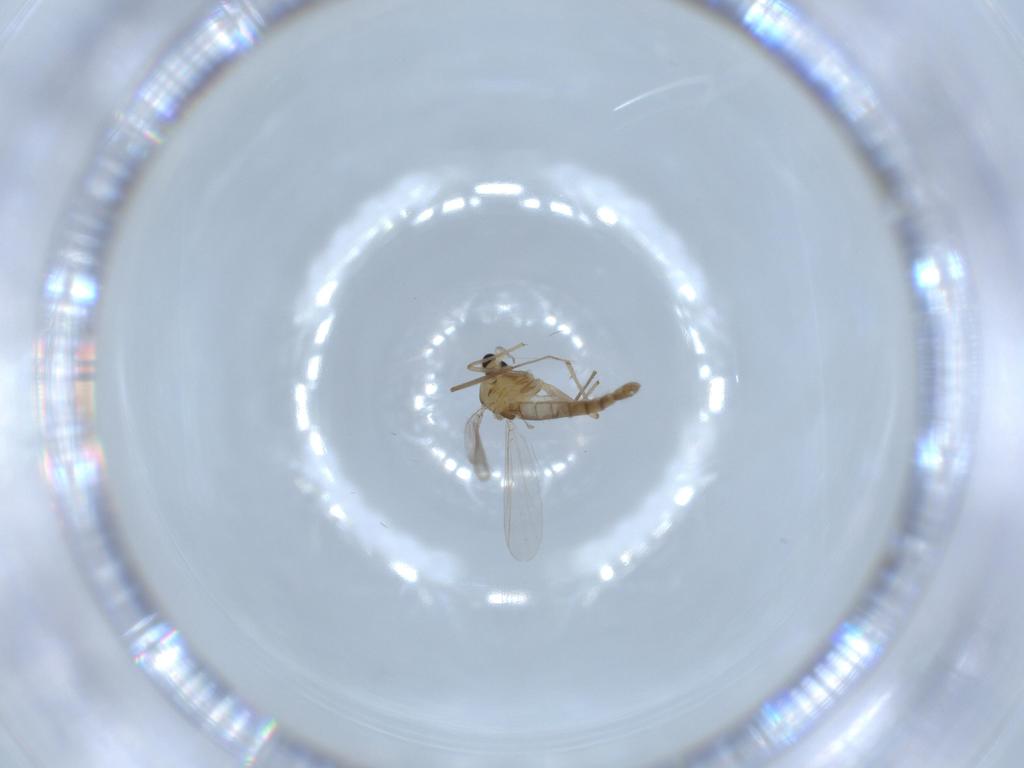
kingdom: Animalia
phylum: Arthropoda
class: Insecta
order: Diptera
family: Chironomidae
